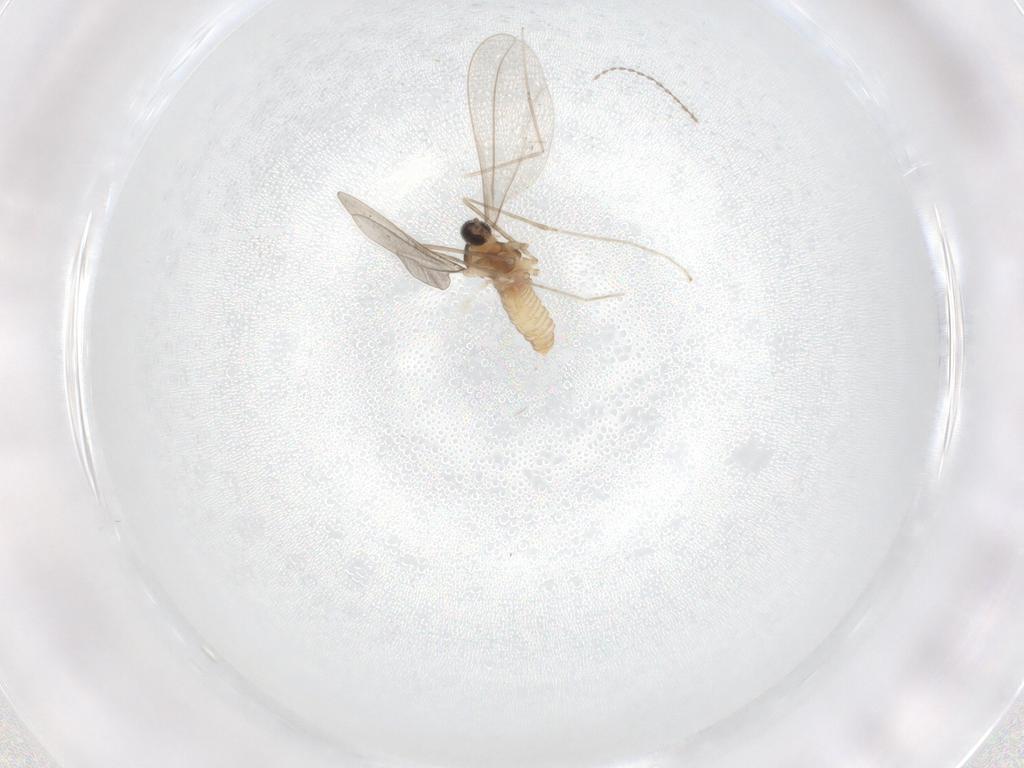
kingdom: Animalia
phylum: Arthropoda
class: Insecta
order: Diptera
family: Cecidomyiidae
